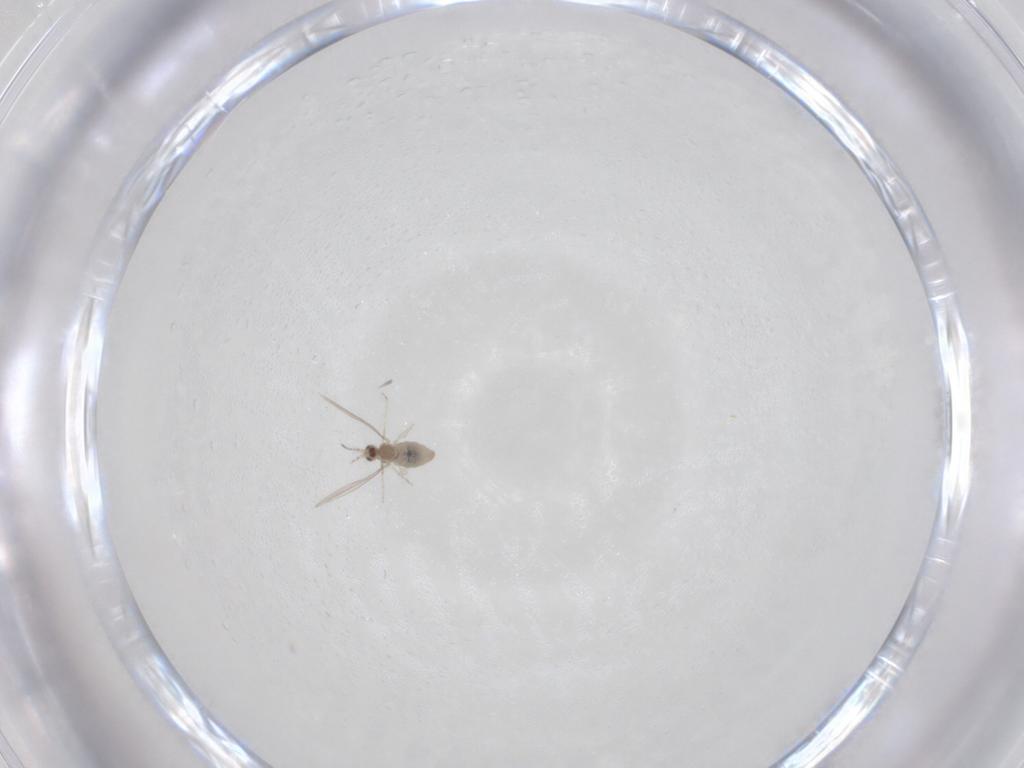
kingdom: Animalia
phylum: Arthropoda
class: Insecta
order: Diptera
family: Cecidomyiidae
